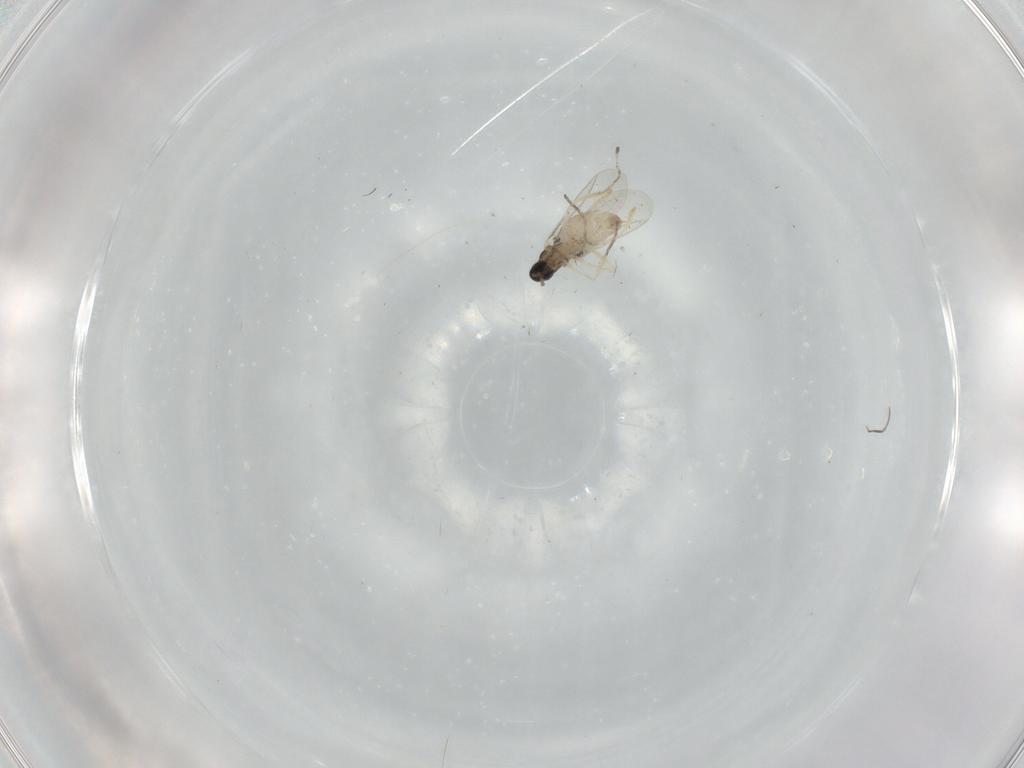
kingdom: Animalia
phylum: Arthropoda
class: Insecta
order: Diptera
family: Cecidomyiidae
